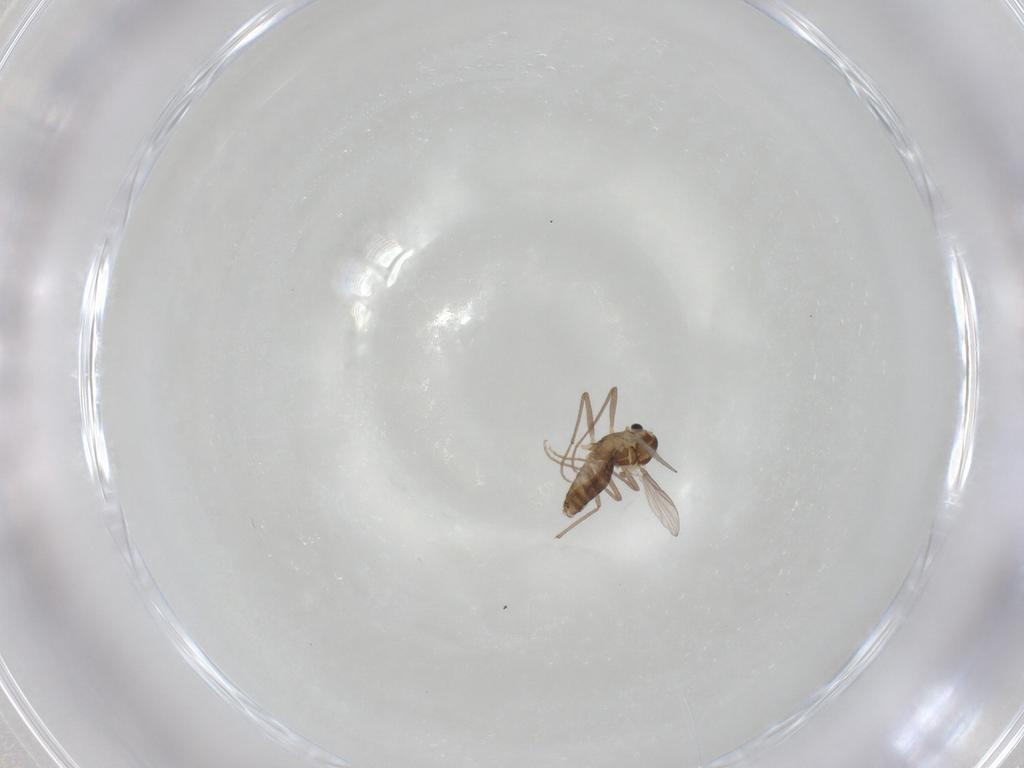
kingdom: Animalia
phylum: Arthropoda
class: Insecta
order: Diptera
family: Chironomidae
